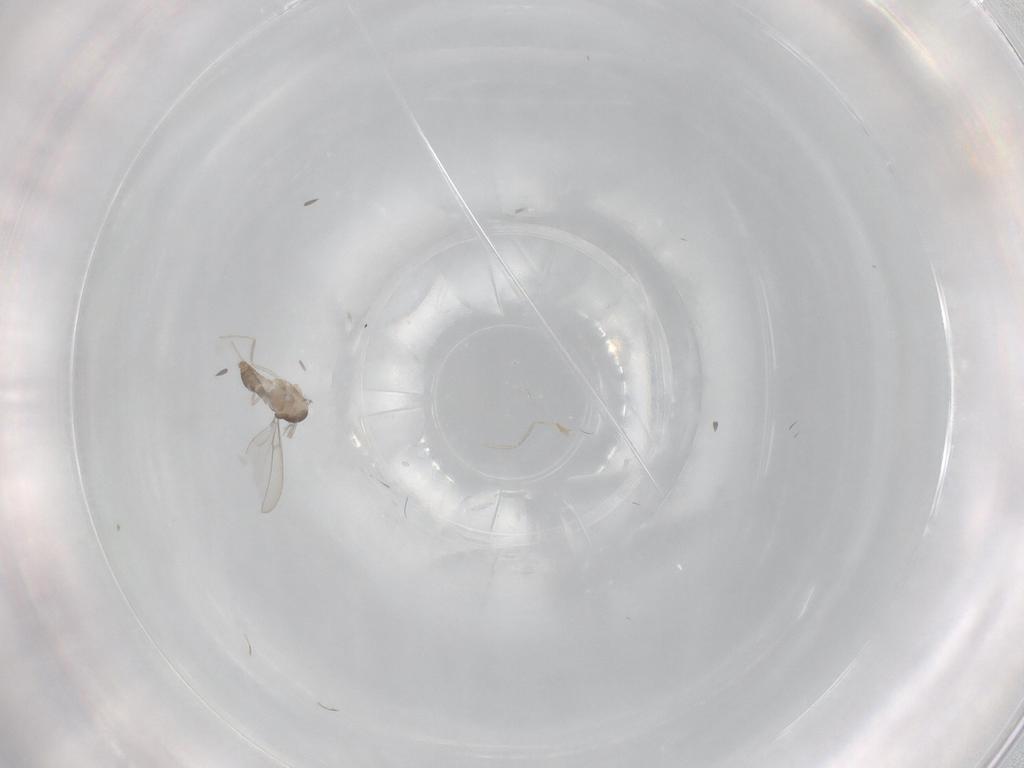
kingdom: Animalia
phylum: Arthropoda
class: Insecta
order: Diptera
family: Cecidomyiidae
